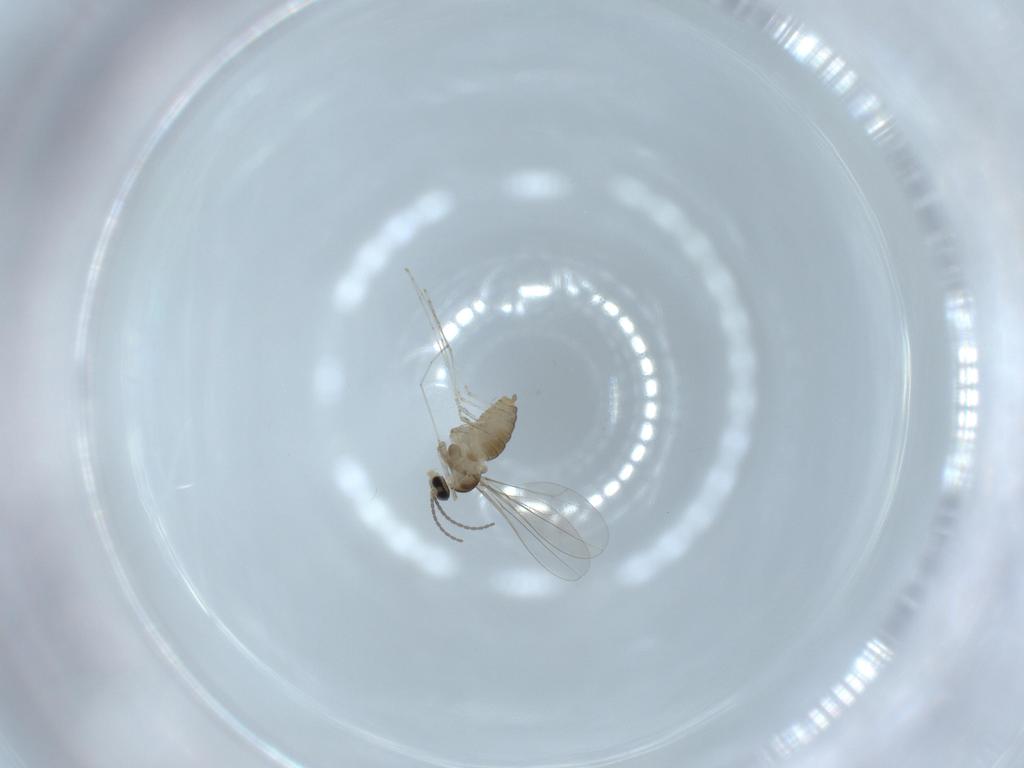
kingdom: Animalia
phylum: Arthropoda
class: Insecta
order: Diptera
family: Cecidomyiidae
